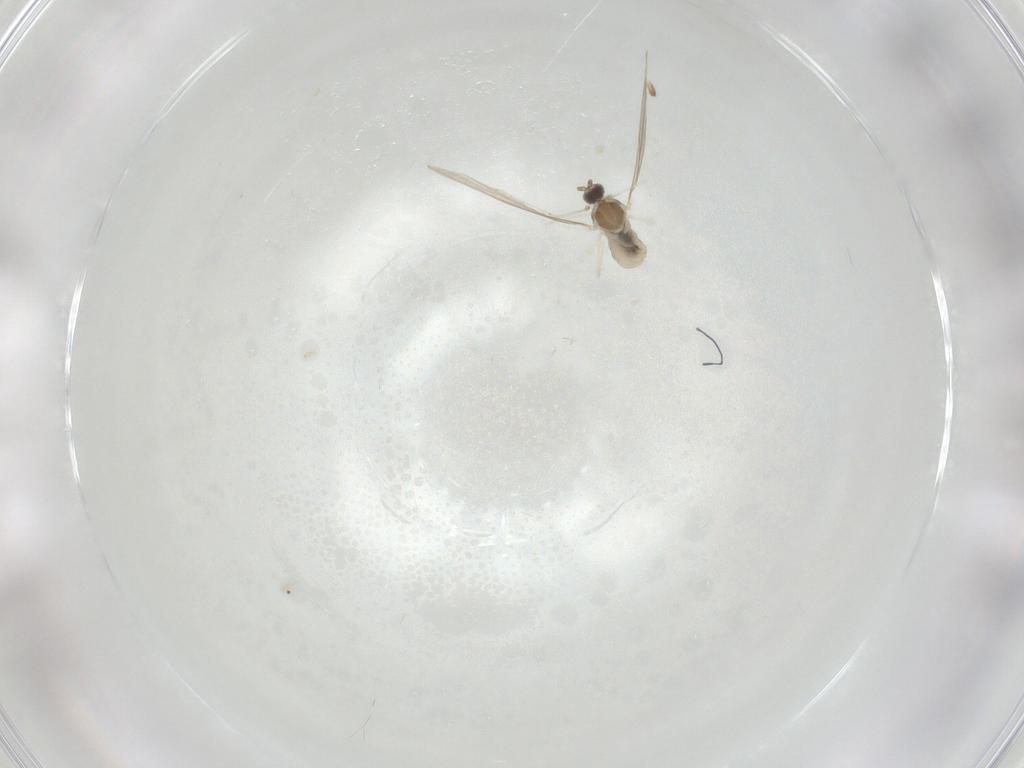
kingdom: Animalia
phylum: Arthropoda
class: Insecta
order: Diptera
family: Cecidomyiidae
